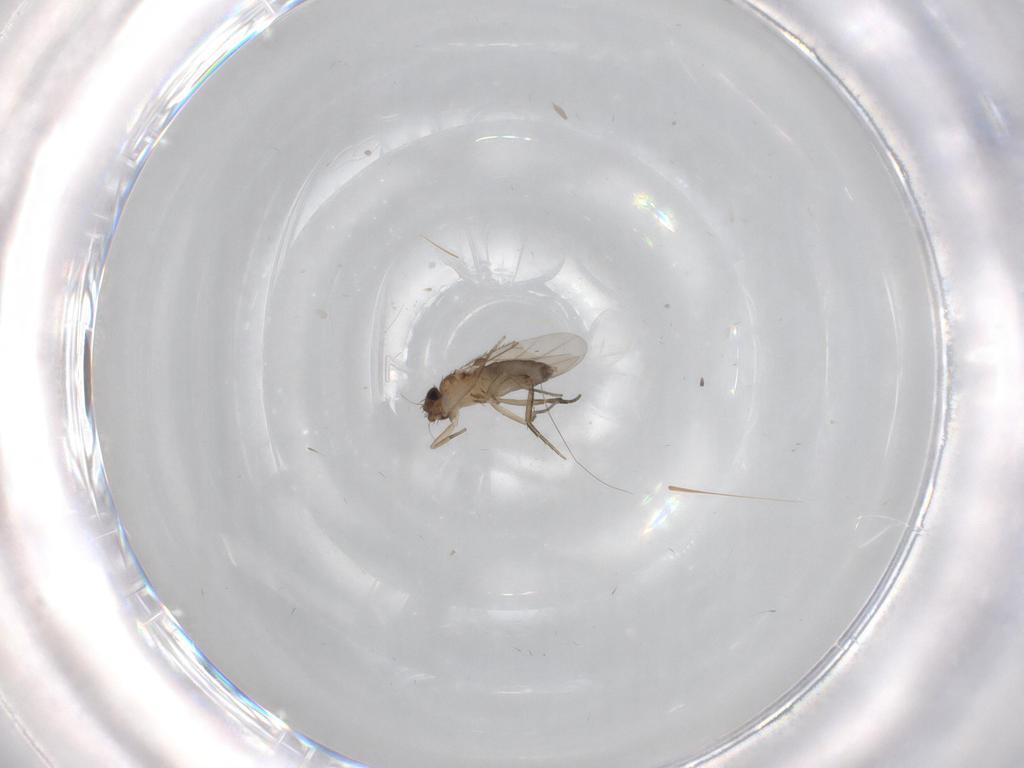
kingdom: Animalia
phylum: Arthropoda
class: Insecta
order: Diptera
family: Phoridae
